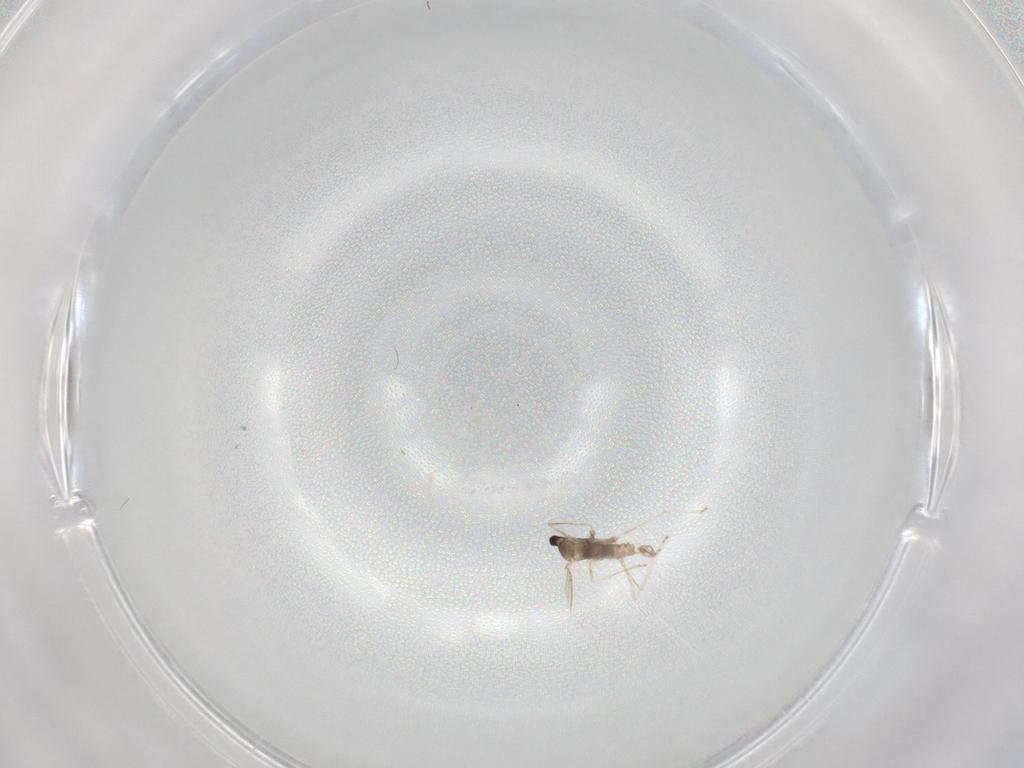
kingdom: Animalia
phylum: Arthropoda
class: Insecta
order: Diptera
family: Cecidomyiidae
